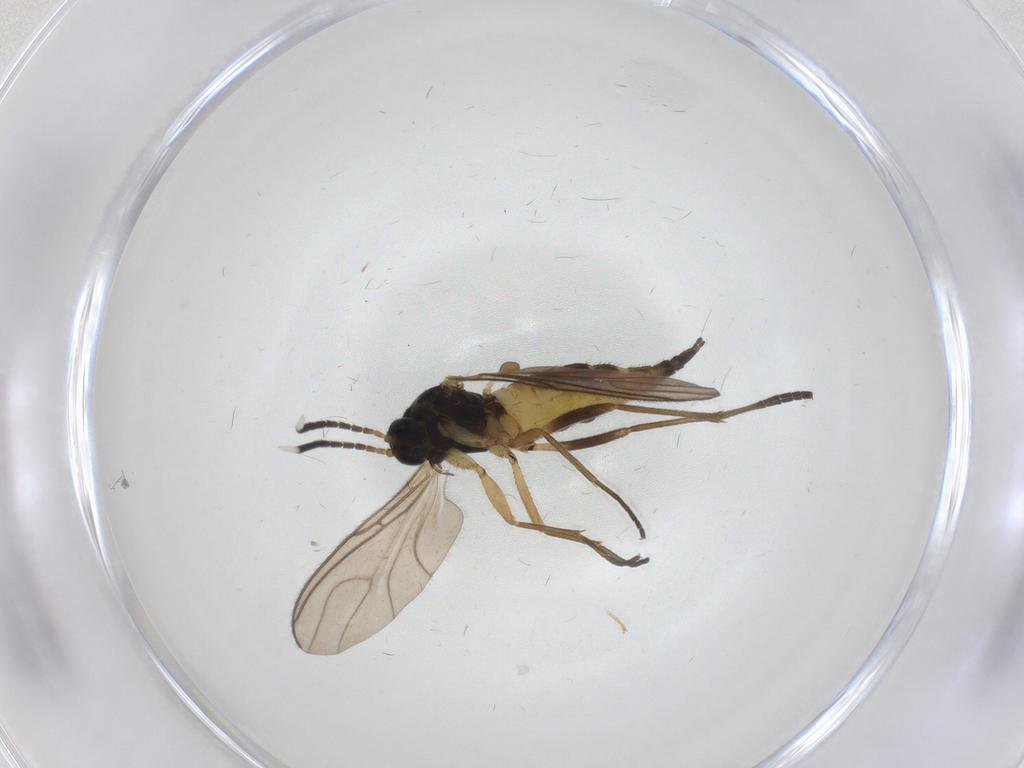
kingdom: Animalia
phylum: Arthropoda
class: Insecta
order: Diptera
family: Sciaridae
